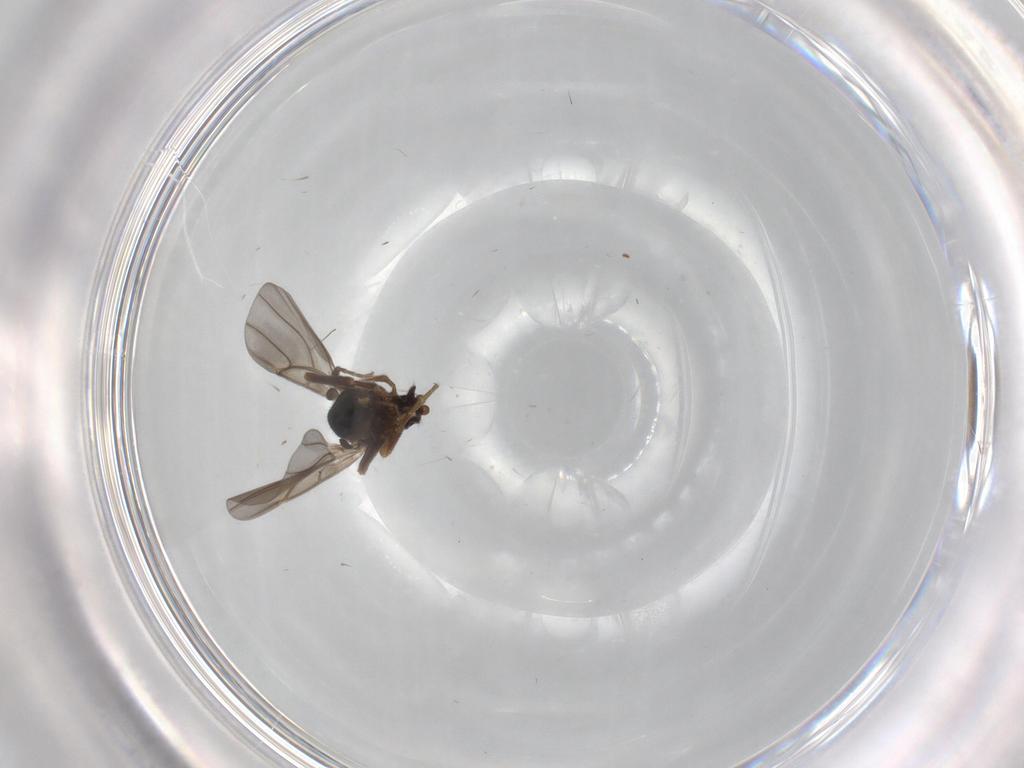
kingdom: Animalia
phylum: Arthropoda
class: Insecta
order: Diptera
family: Phoridae
